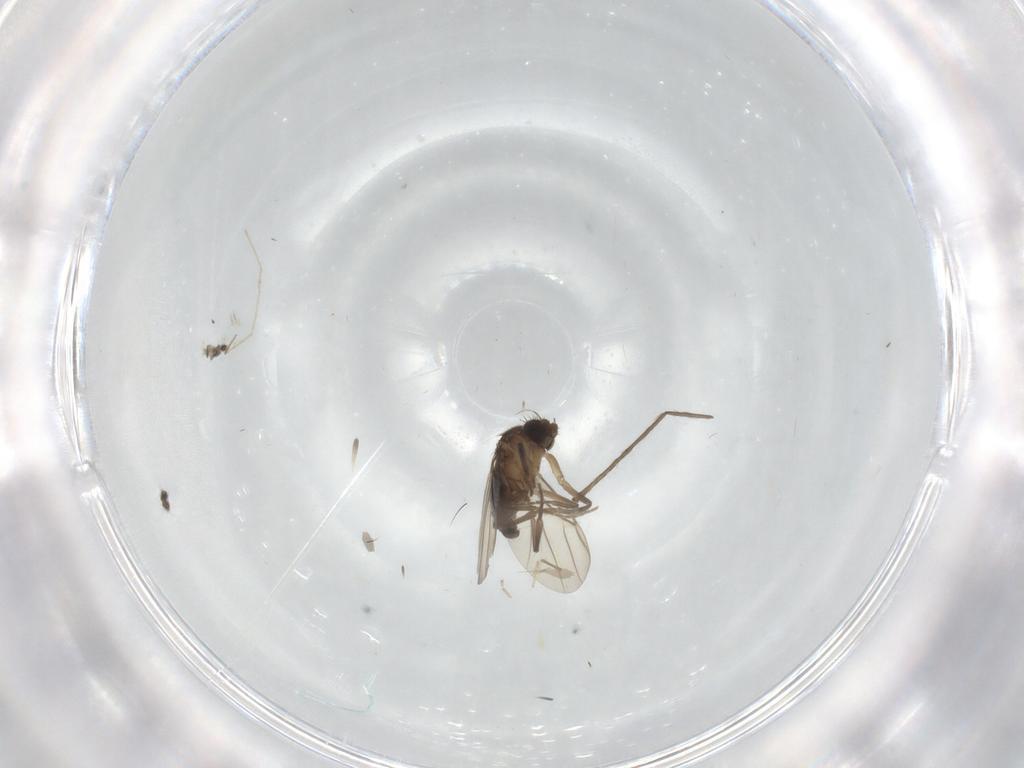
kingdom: Animalia
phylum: Arthropoda
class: Insecta
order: Diptera
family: Phoridae
